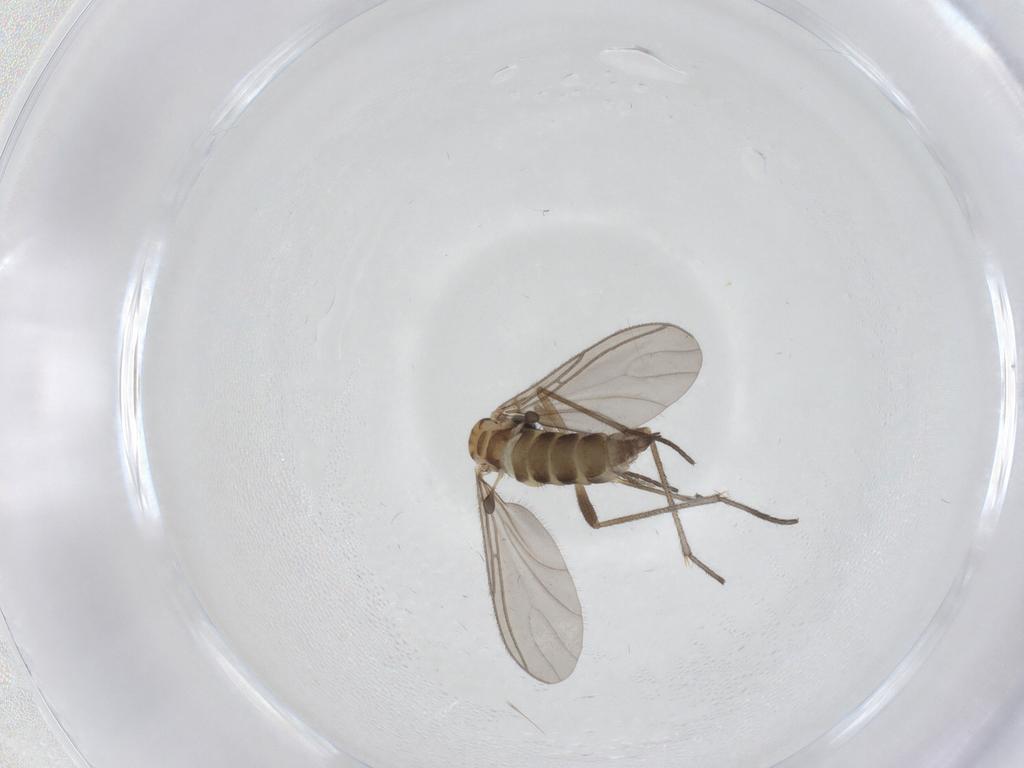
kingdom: Animalia
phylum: Arthropoda
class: Insecta
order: Diptera
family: Sciaridae
